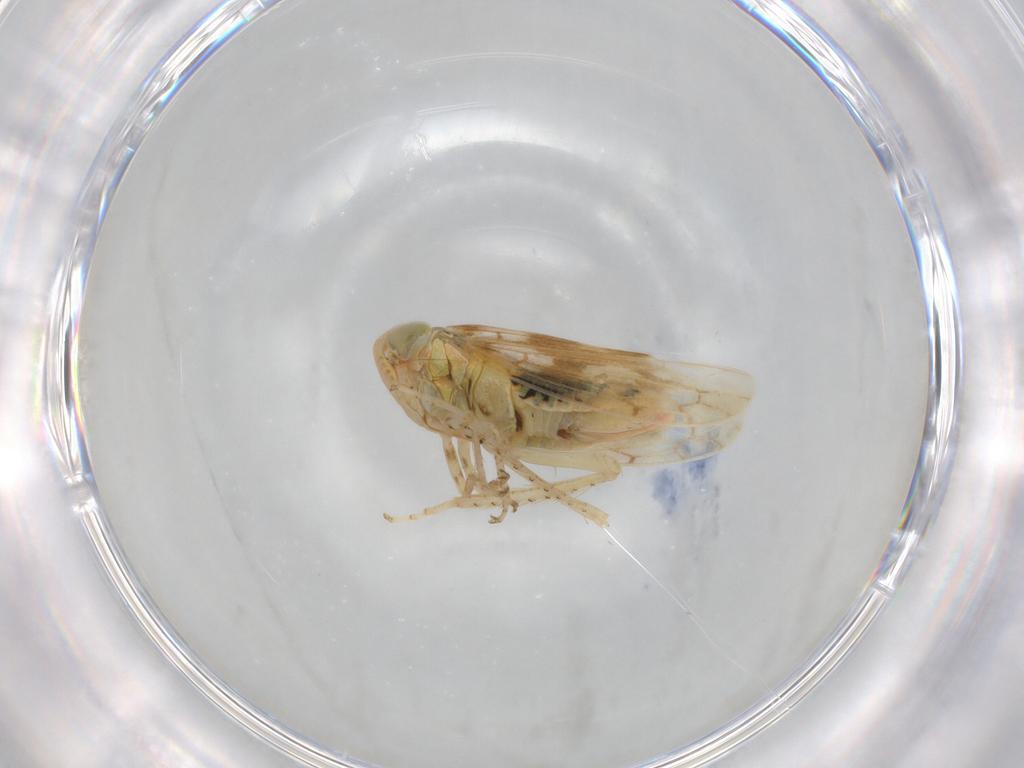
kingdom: Animalia
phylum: Arthropoda
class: Insecta
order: Hemiptera
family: Cicadellidae
